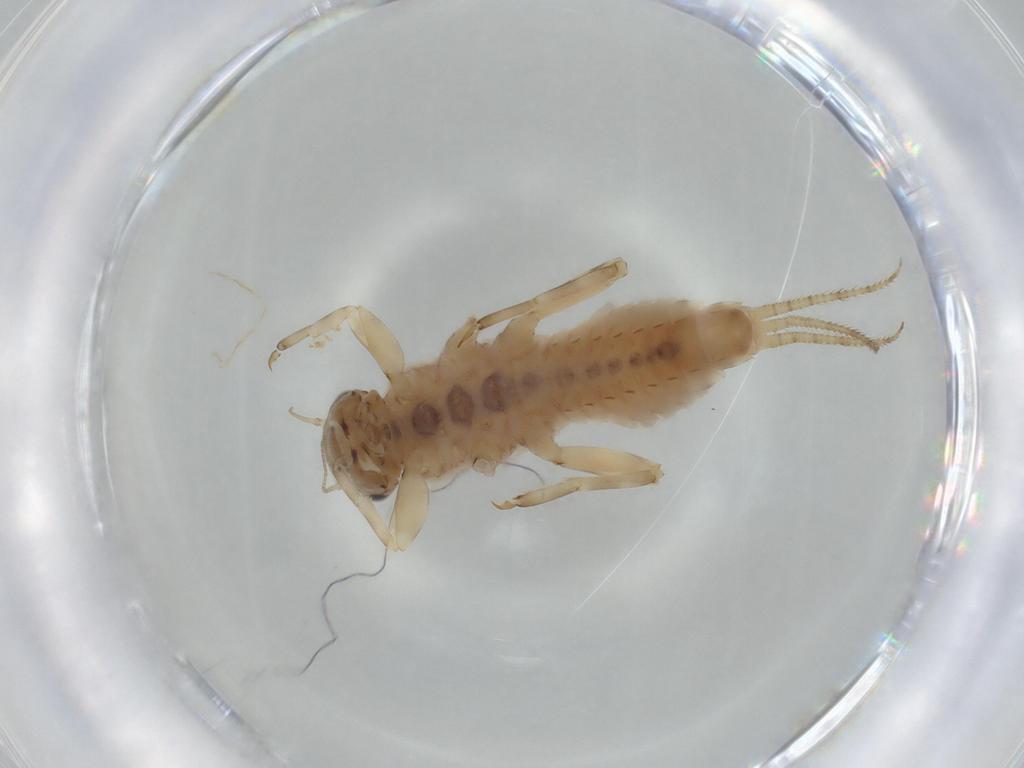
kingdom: Animalia
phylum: Arthropoda
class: Insecta
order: Ephemeroptera
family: Ephemerellidae
